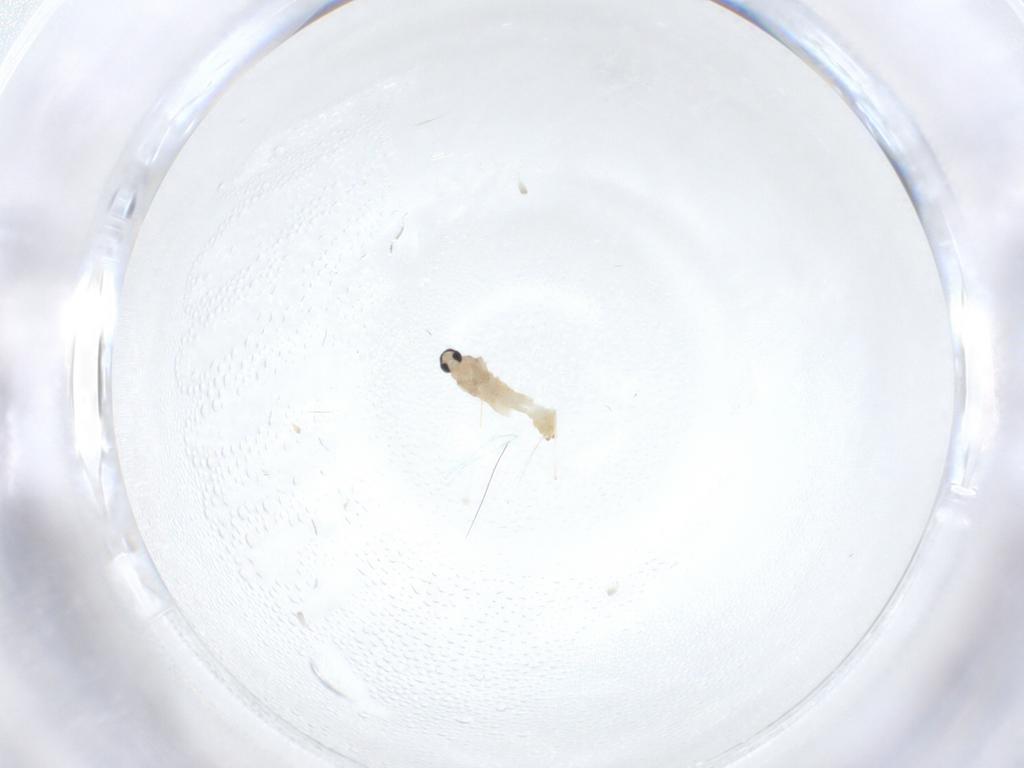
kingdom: Animalia
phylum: Arthropoda
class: Insecta
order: Diptera
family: Cecidomyiidae
